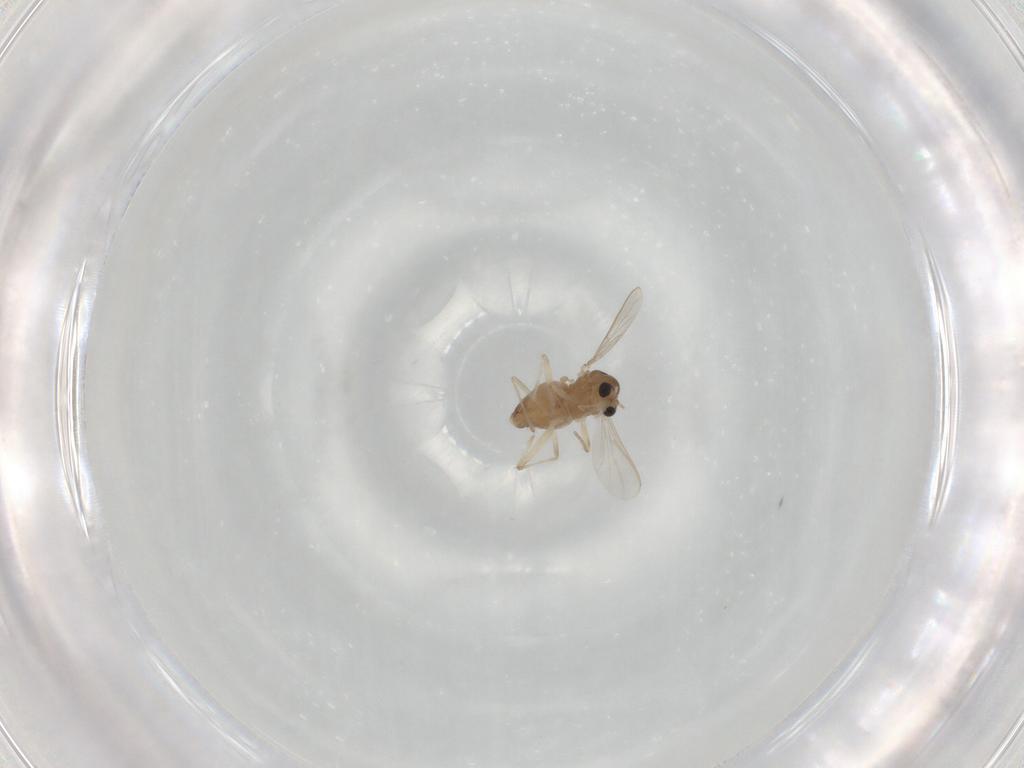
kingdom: Animalia
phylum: Arthropoda
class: Insecta
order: Diptera
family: Chironomidae
